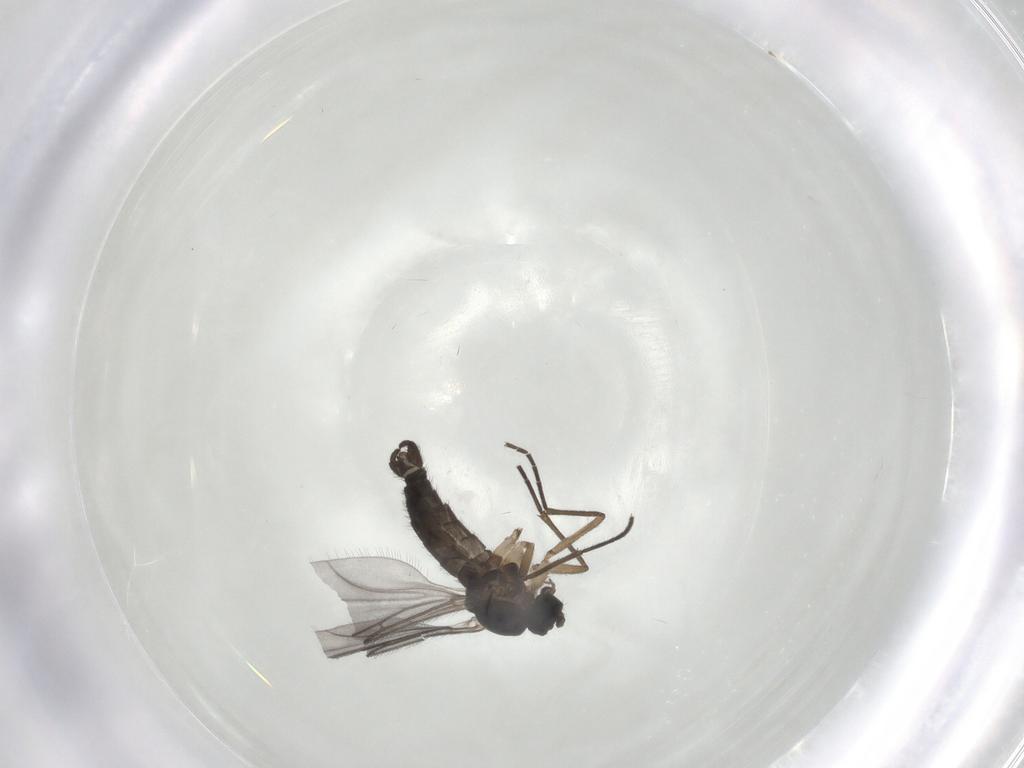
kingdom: Animalia
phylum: Arthropoda
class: Insecta
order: Diptera
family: Sciaridae
